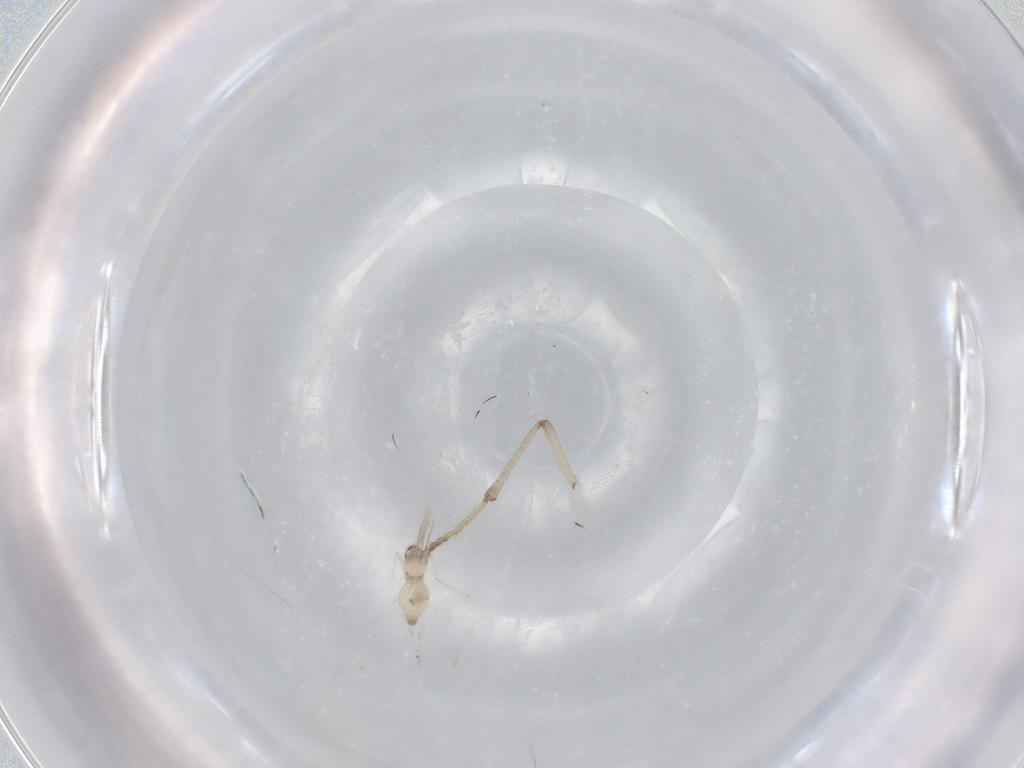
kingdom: Animalia
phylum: Arthropoda
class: Insecta
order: Diptera
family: Cecidomyiidae
